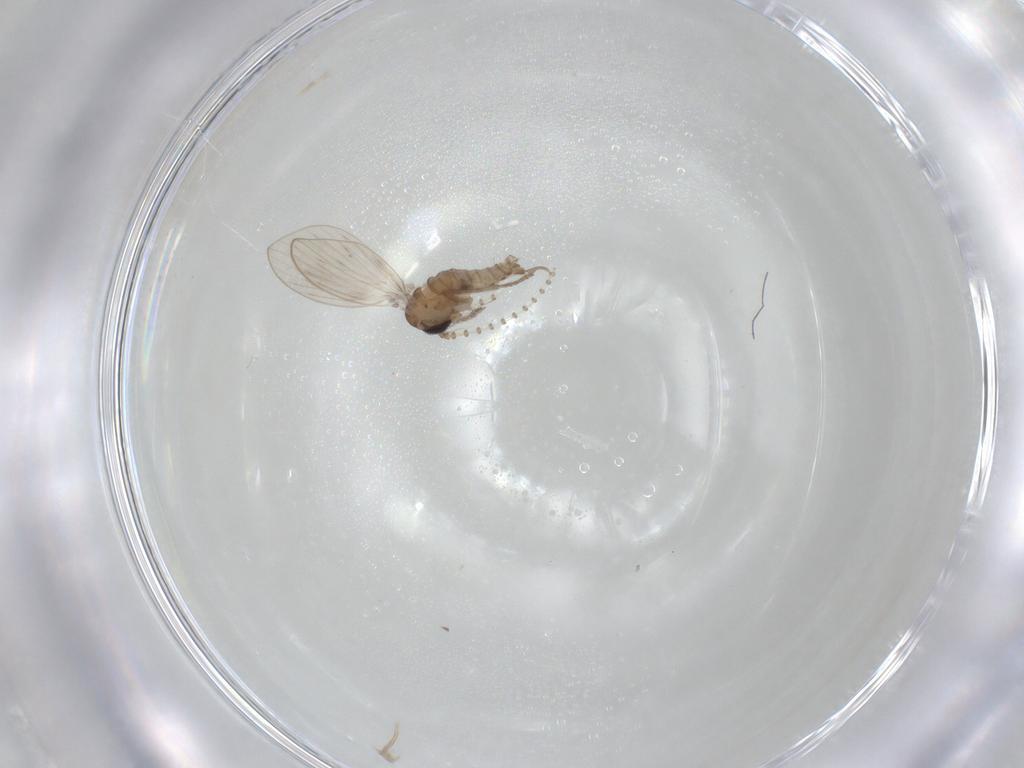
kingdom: Animalia
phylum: Arthropoda
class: Insecta
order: Diptera
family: Psychodidae
